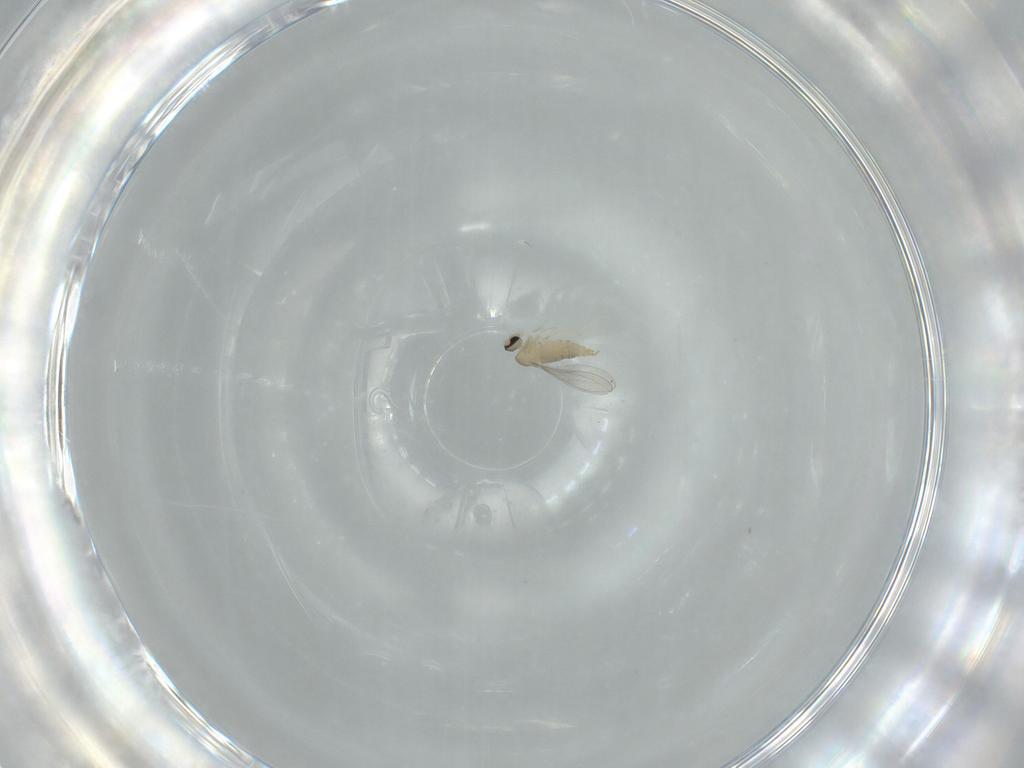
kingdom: Animalia
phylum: Arthropoda
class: Insecta
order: Diptera
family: Cecidomyiidae
